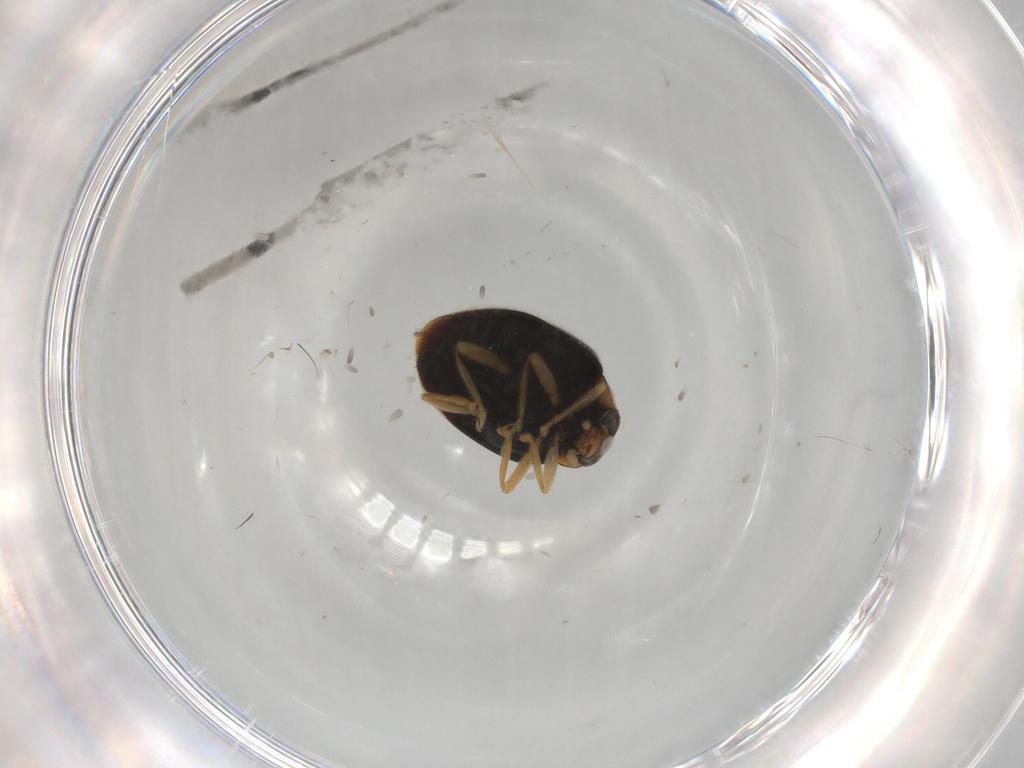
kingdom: Animalia
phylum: Arthropoda
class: Insecta
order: Coleoptera
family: Coccinellidae
